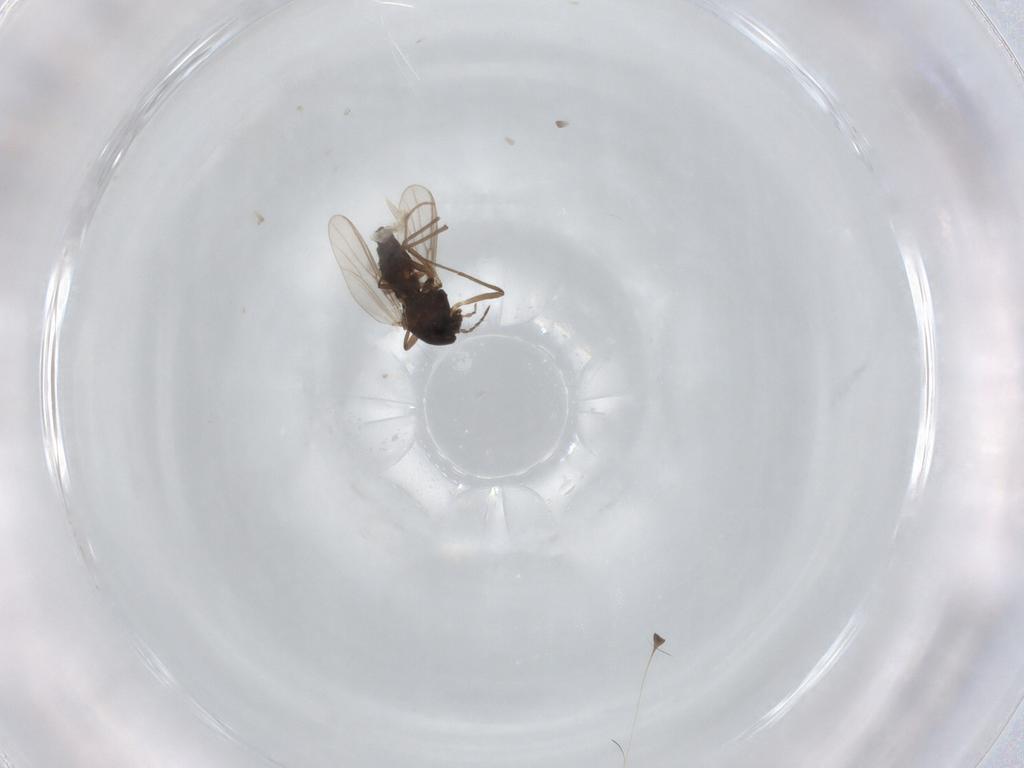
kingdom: Animalia
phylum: Arthropoda
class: Insecta
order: Diptera
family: Chironomidae
